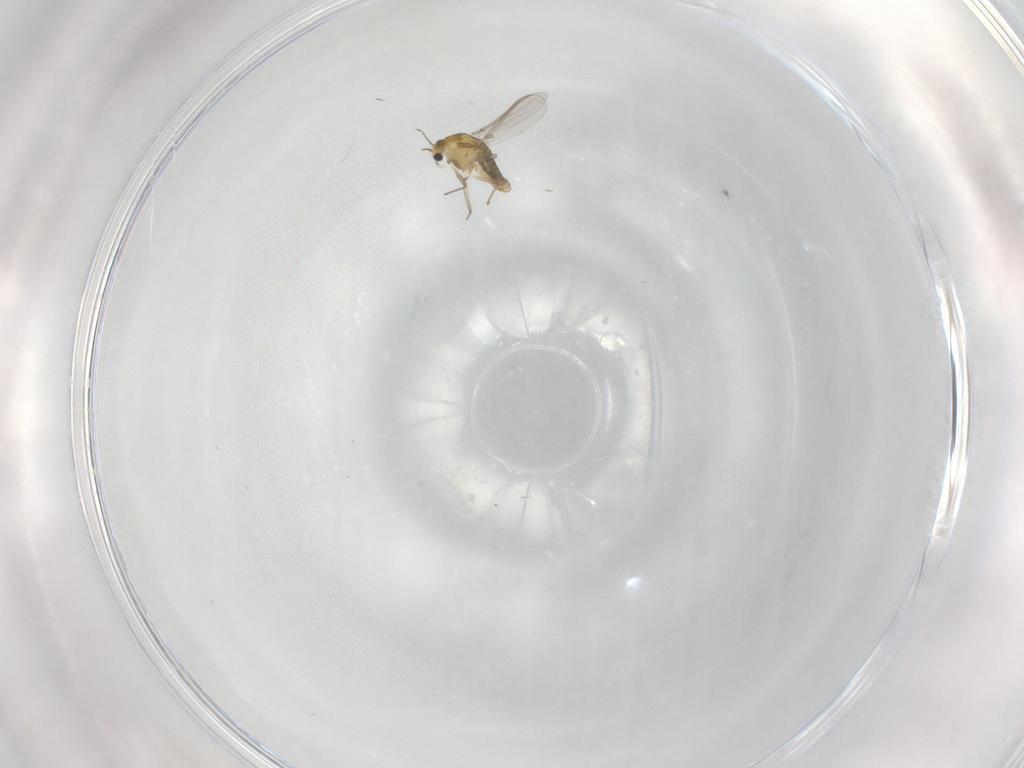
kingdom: Animalia
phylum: Arthropoda
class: Insecta
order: Diptera
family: Chironomidae
